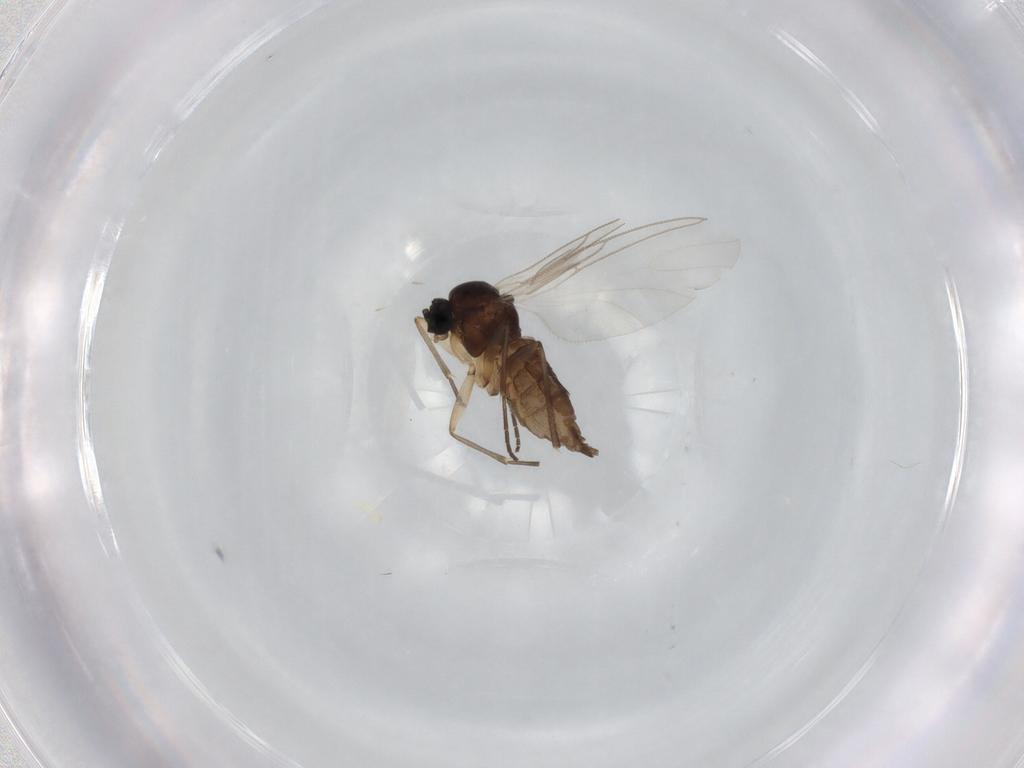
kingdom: Animalia
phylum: Arthropoda
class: Insecta
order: Diptera
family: Sciaridae
